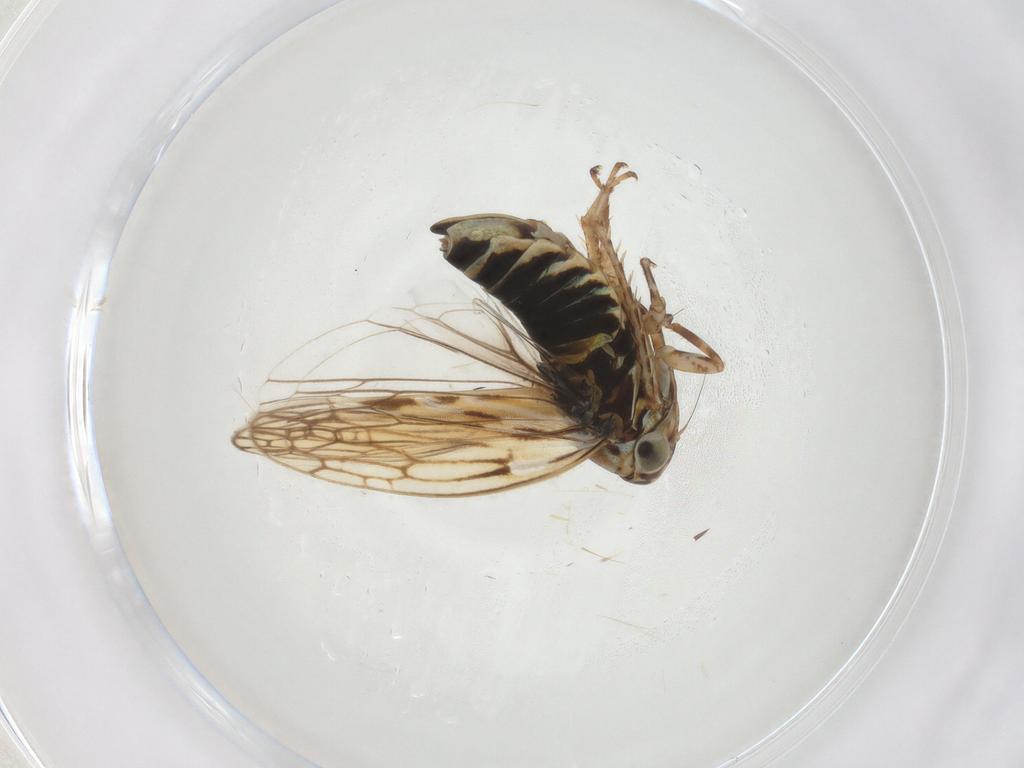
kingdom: Animalia
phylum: Arthropoda
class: Insecta
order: Hemiptera
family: Cicadellidae
